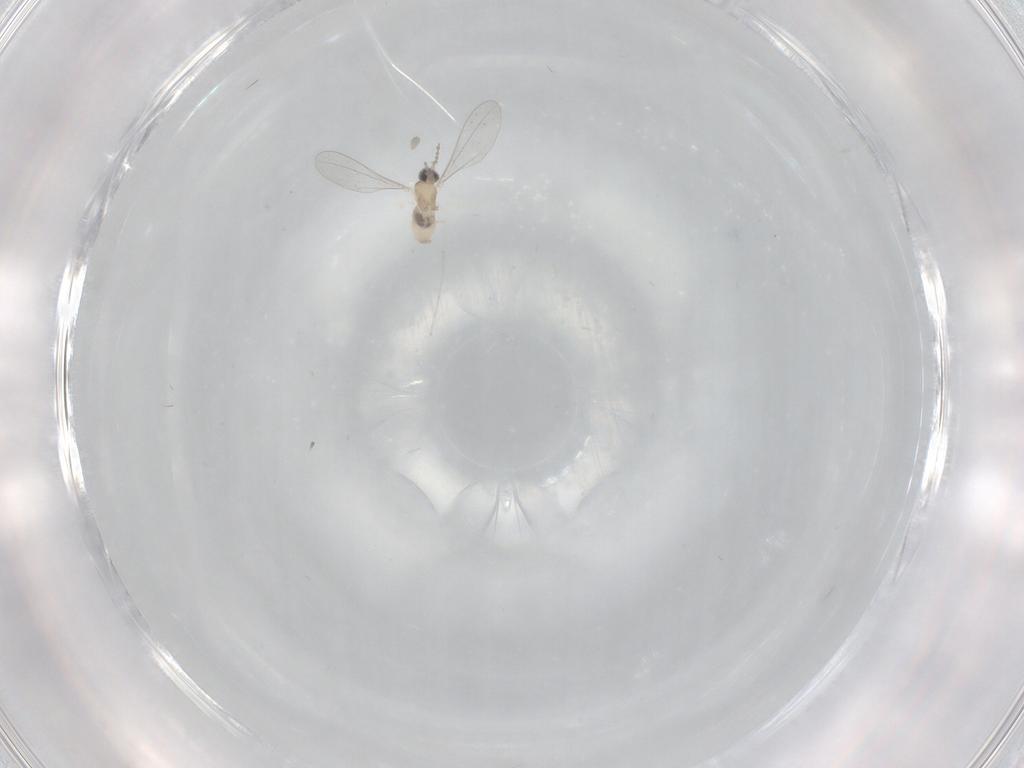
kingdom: Animalia
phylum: Arthropoda
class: Insecta
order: Diptera
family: Cecidomyiidae
